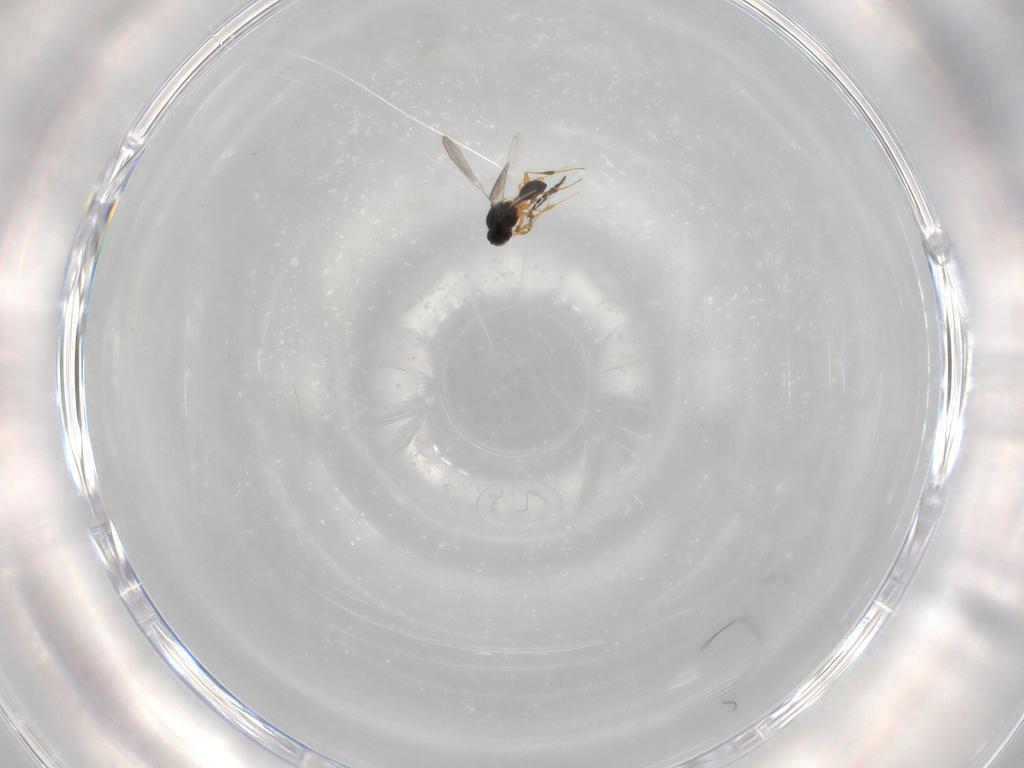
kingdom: Animalia
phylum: Arthropoda
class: Insecta
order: Hymenoptera
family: Platygastridae
